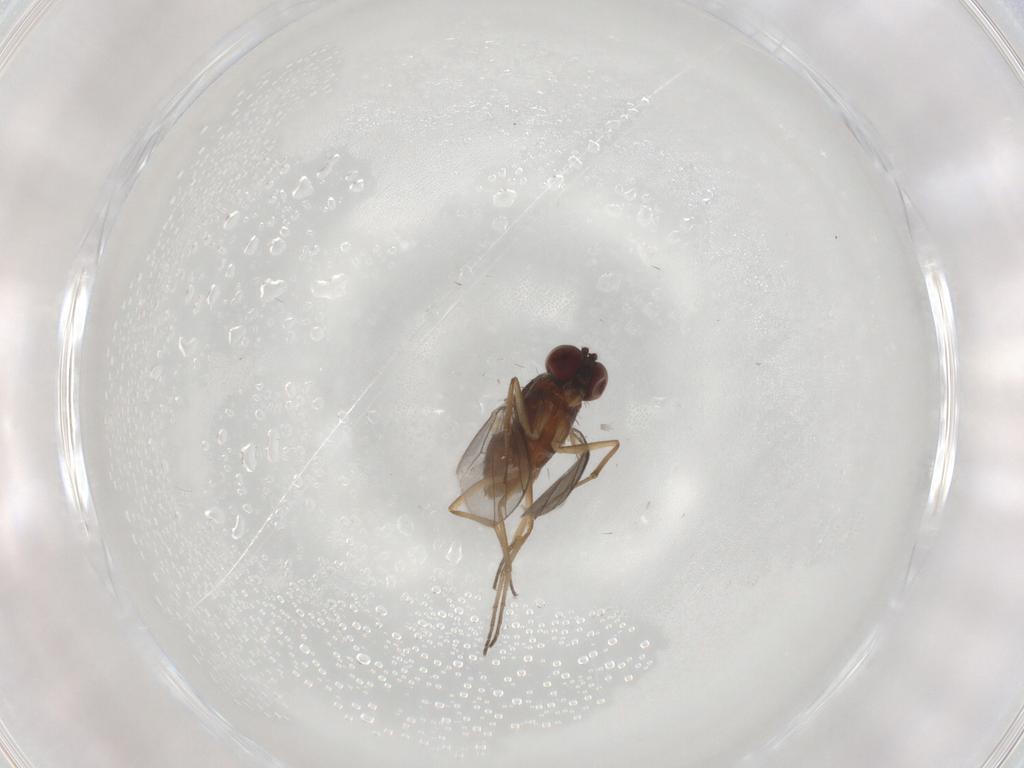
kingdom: Animalia
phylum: Arthropoda
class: Insecta
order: Diptera
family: Cecidomyiidae
